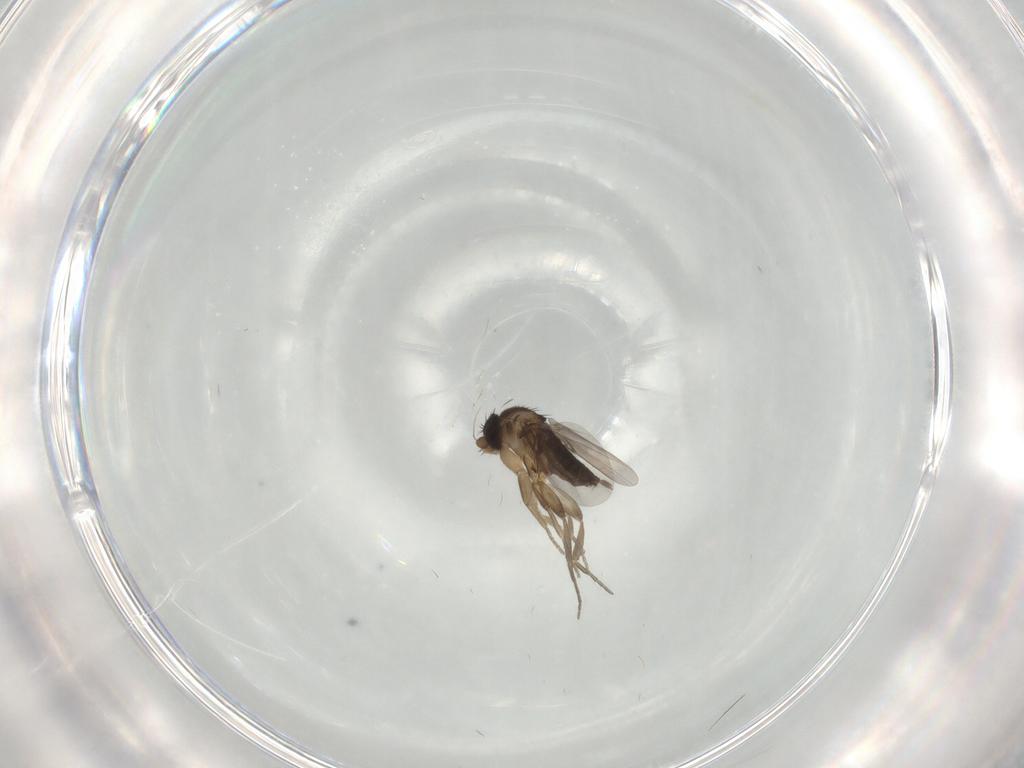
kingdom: Animalia
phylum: Arthropoda
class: Insecta
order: Diptera
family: Phoridae
